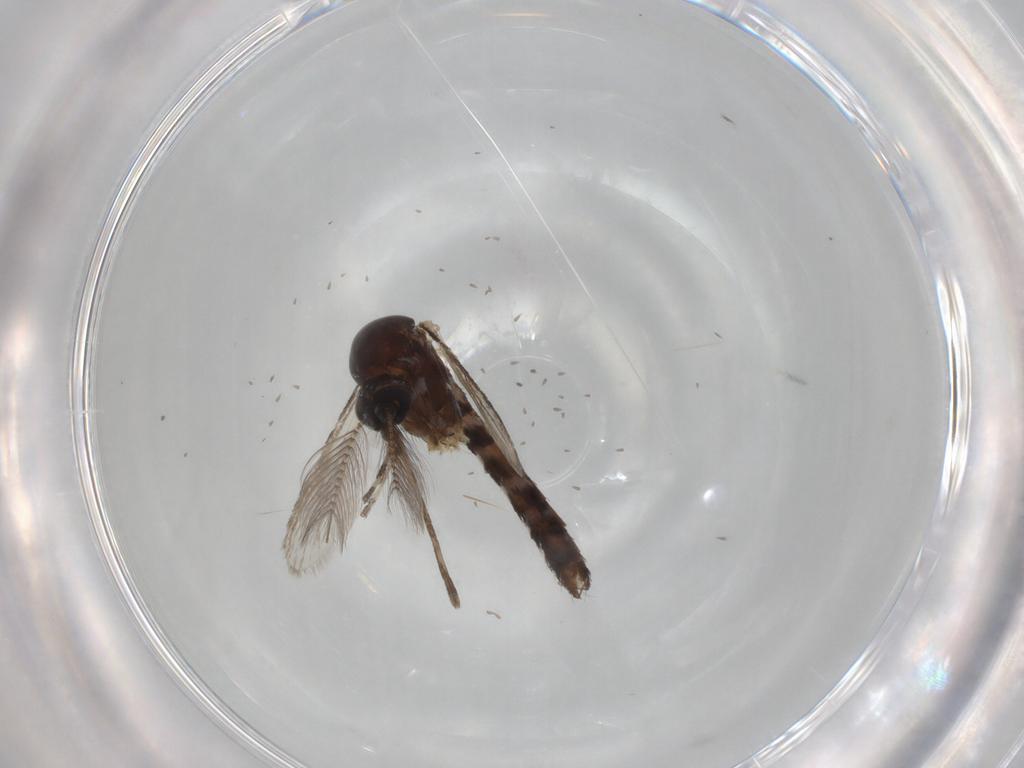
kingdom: Animalia
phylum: Arthropoda
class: Insecta
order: Diptera
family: Hybotidae
